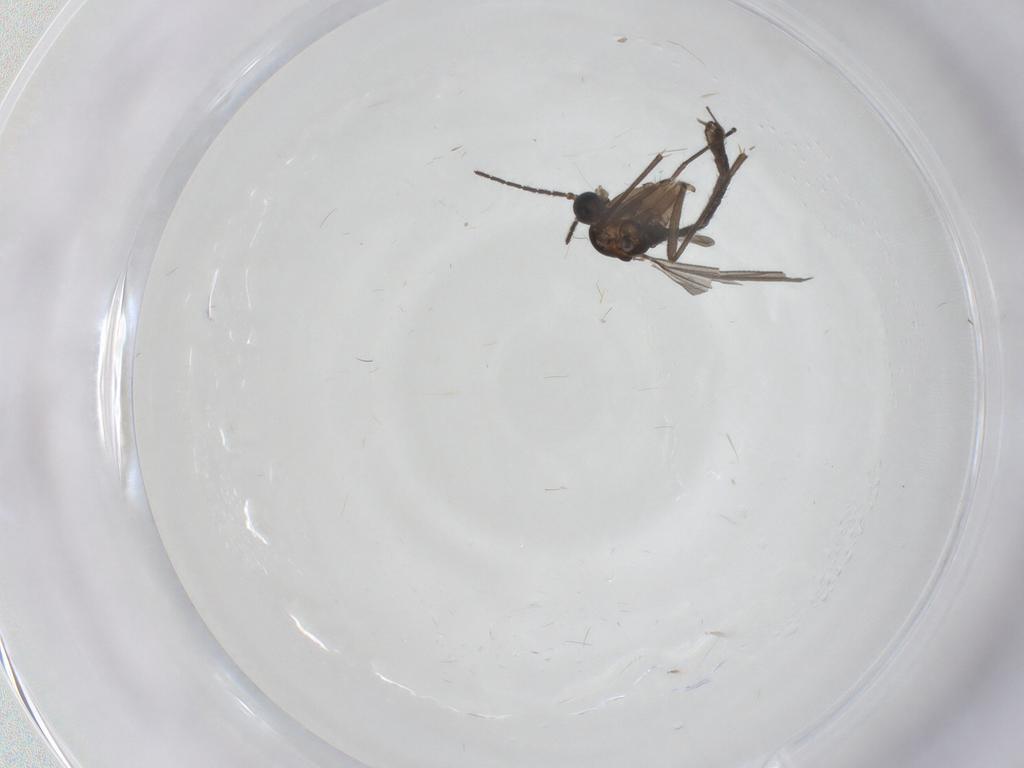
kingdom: Animalia
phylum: Arthropoda
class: Insecta
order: Diptera
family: Sciaridae
